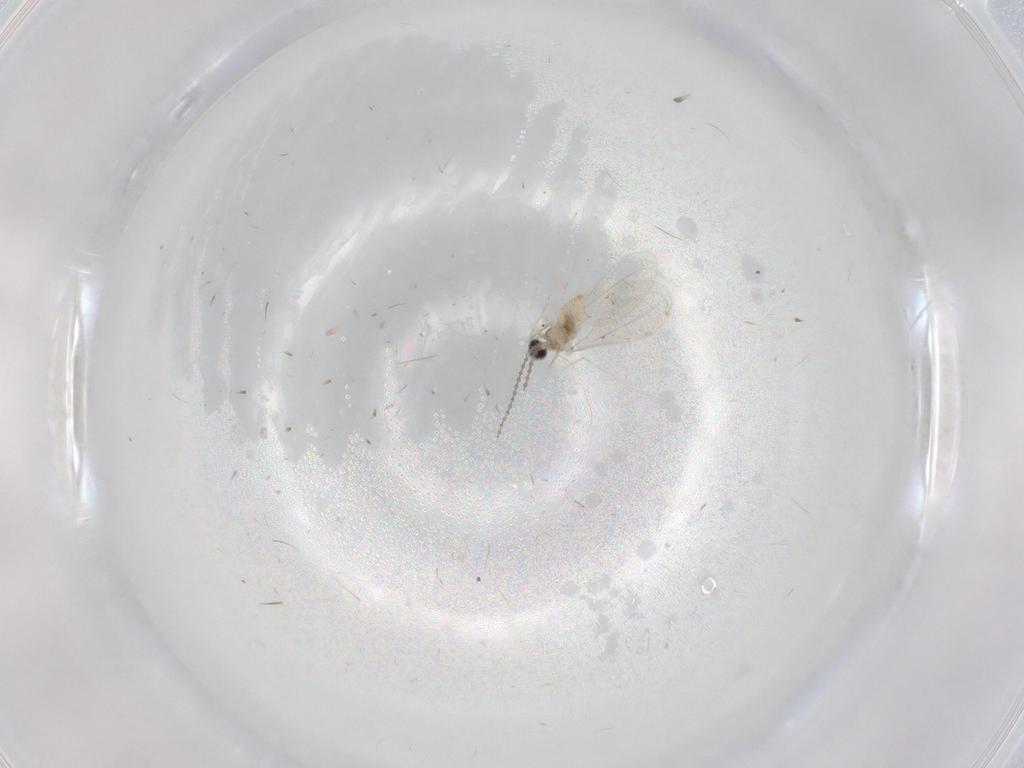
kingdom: Animalia
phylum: Arthropoda
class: Insecta
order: Diptera
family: Cecidomyiidae
